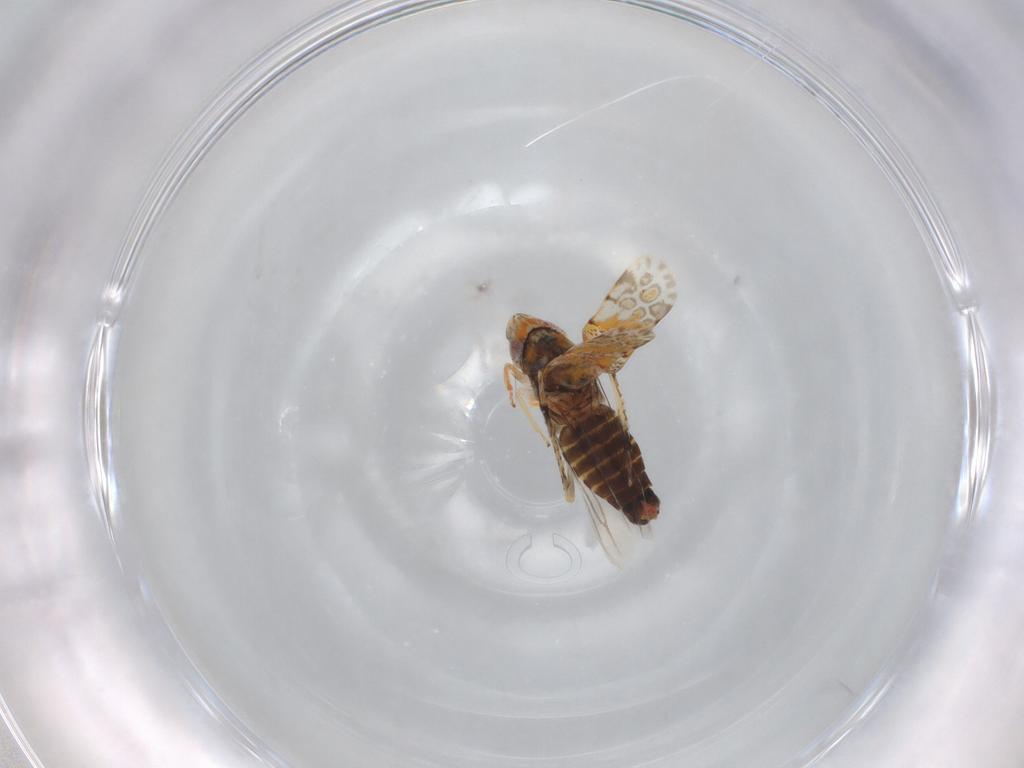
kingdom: Animalia
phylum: Arthropoda
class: Insecta
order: Hemiptera
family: Cicadellidae
